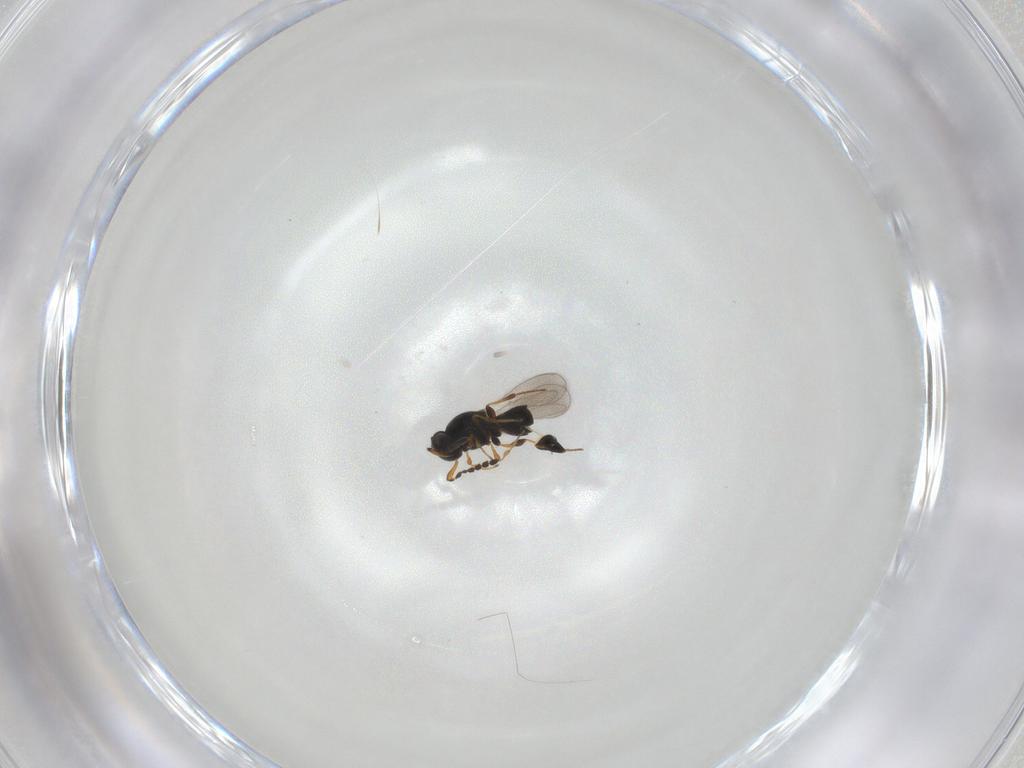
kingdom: Animalia
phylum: Arthropoda
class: Insecta
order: Hymenoptera
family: Platygastridae
